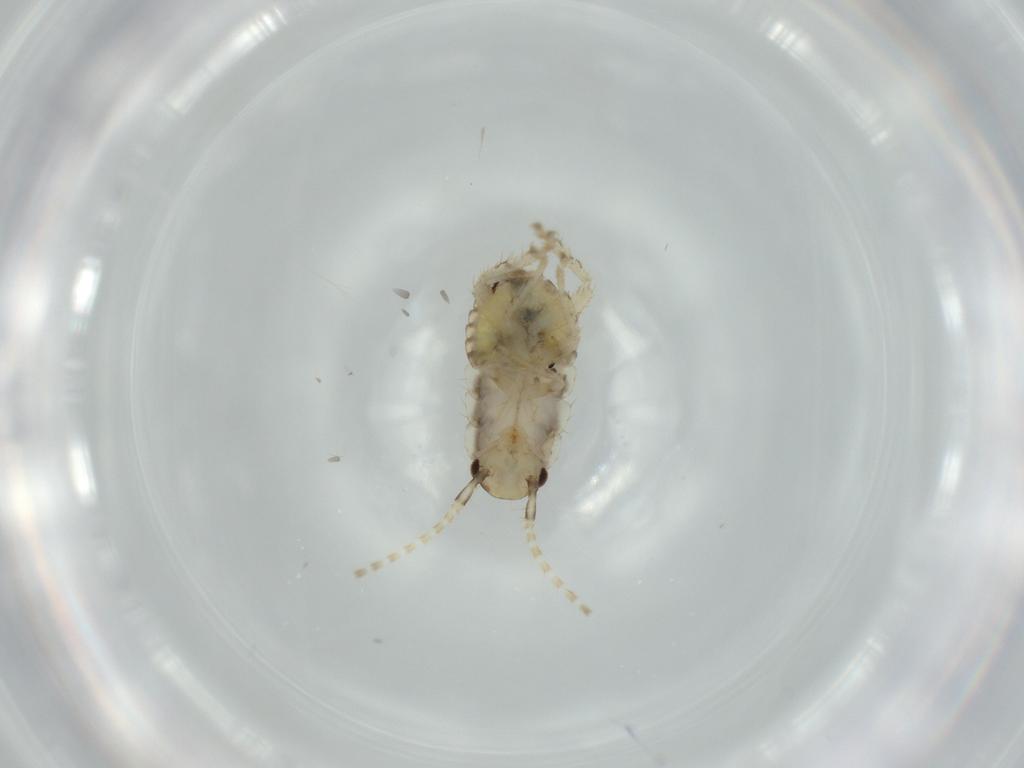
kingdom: Animalia
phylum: Arthropoda
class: Insecta
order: Blattodea
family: Ectobiidae
